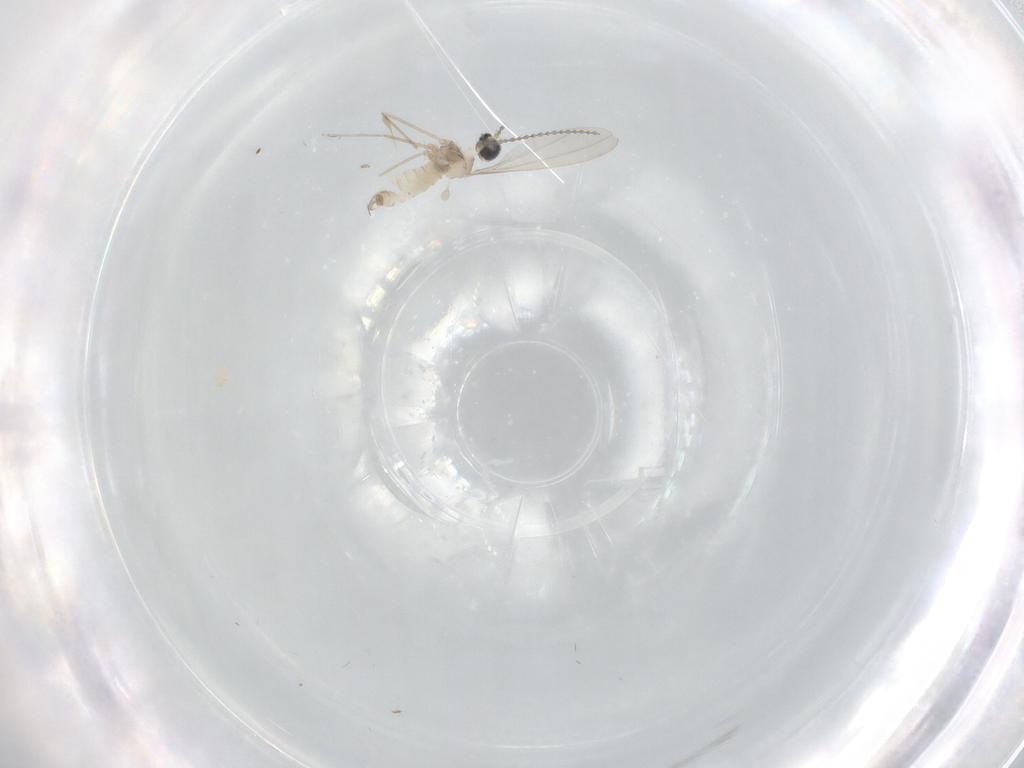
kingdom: Animalia
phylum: Arthropoda
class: Insecta
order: Diptera
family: Cecidomyiidae
